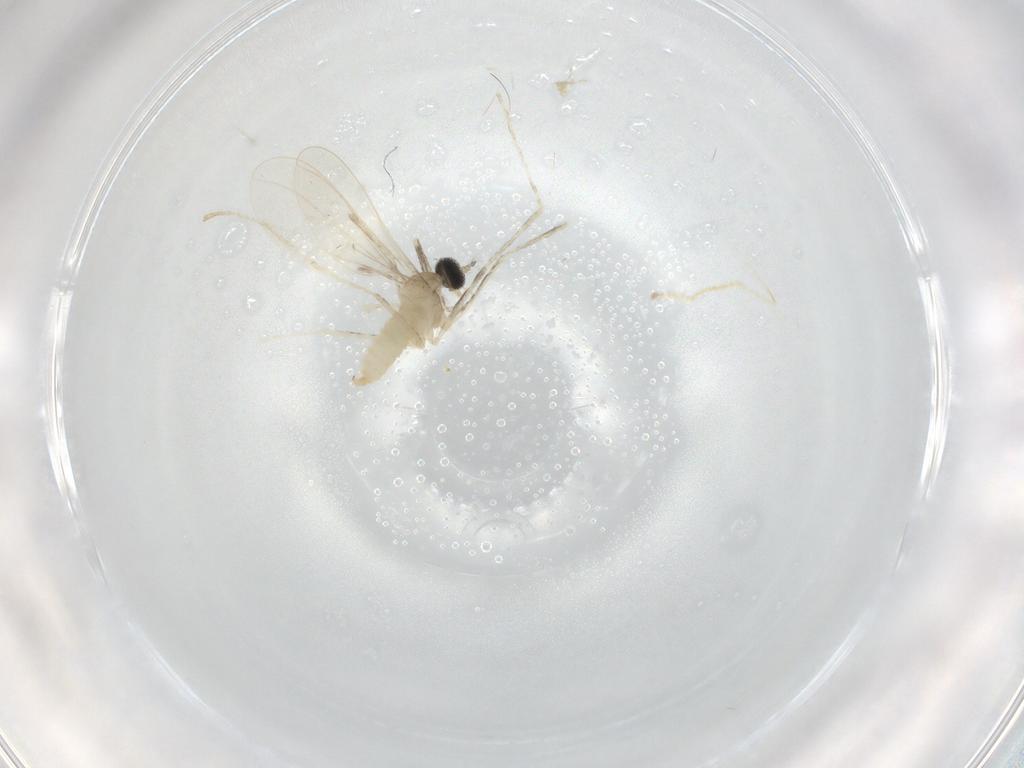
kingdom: Animalia
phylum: Arthropoda
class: Insecta
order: Diptera
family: Cecidomyiidae
